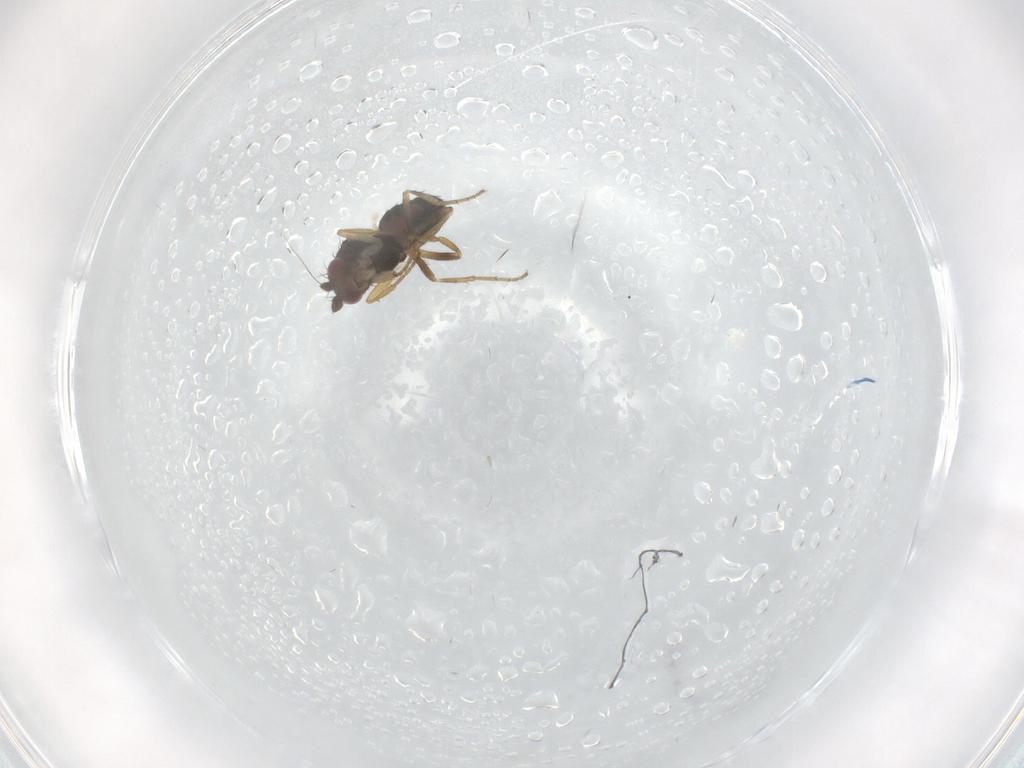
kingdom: Animalia
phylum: Arthropoda
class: Insecta
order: Diptera
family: Sphaeroceridae
